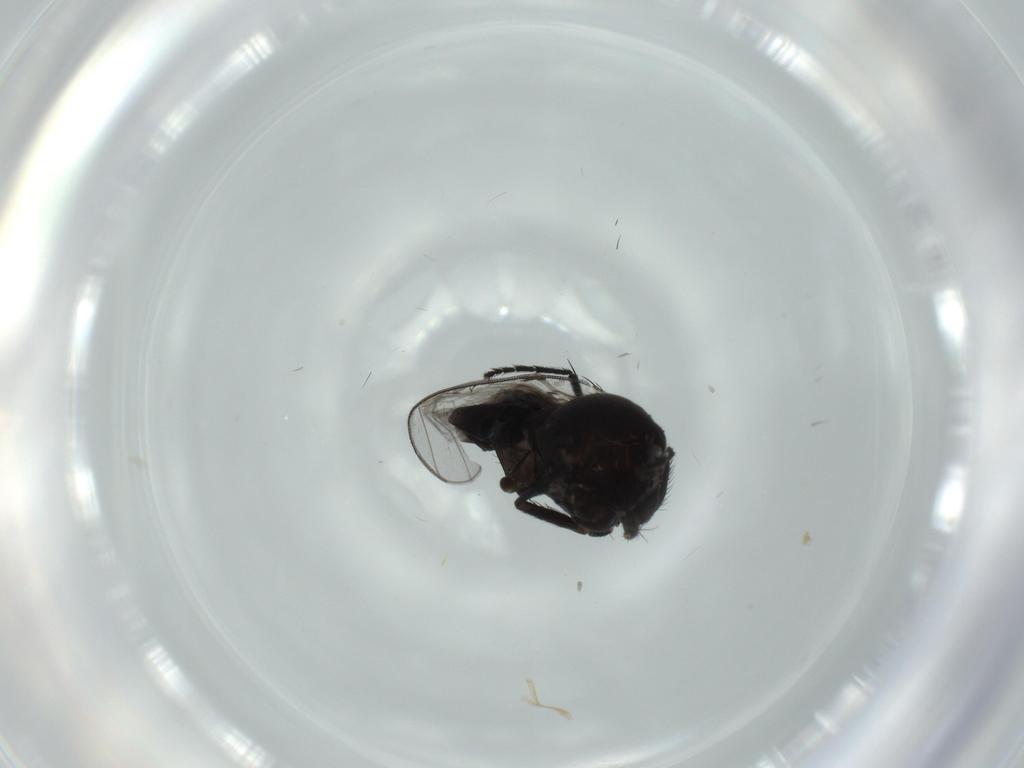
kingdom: Animalia
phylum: Arthropoda
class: Insecta
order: Diptera
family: Milichiidae
